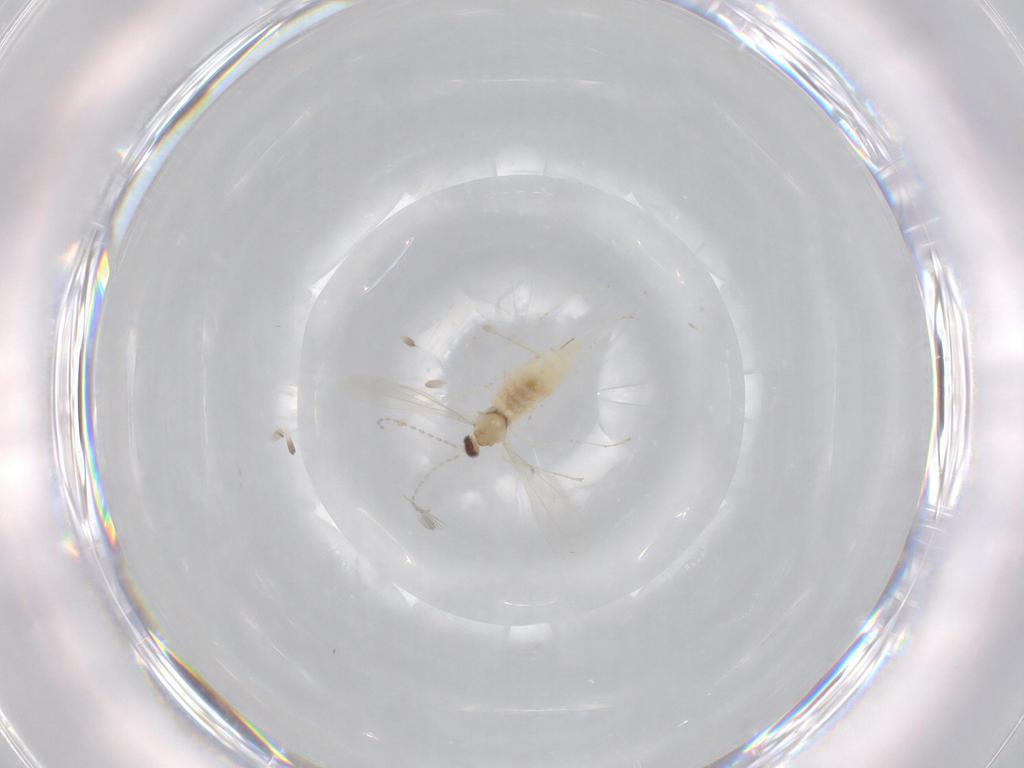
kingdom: Animalia
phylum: Arthropoda
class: Insecta
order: Diptera
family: Cecidomyiidae
